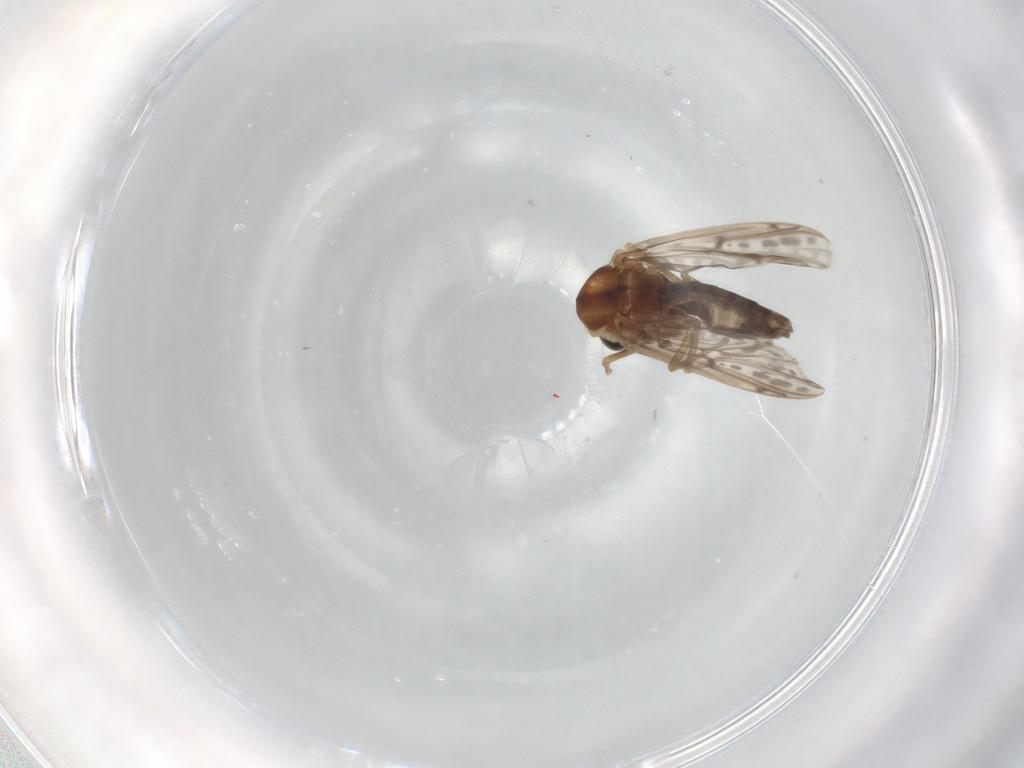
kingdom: Animalia
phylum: Arthropoda
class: Insecta
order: Diptera
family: Chironomidae
